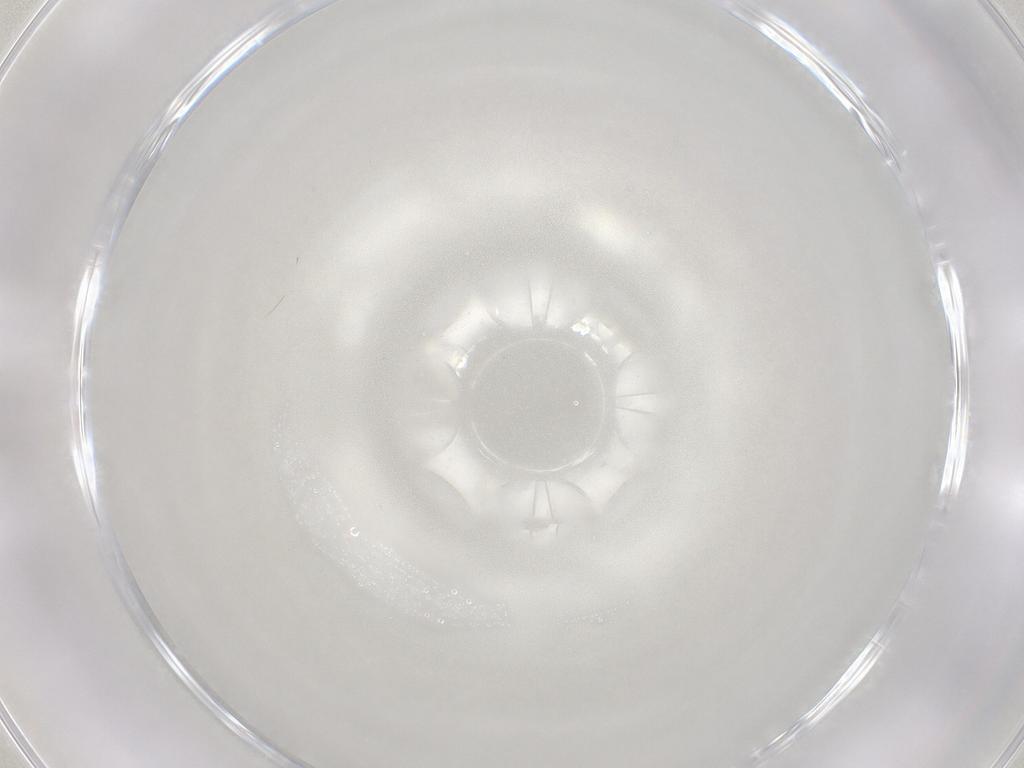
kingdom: Animalia
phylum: Arthropoda
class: Insecta
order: Hymenoptera
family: Mymaridae
